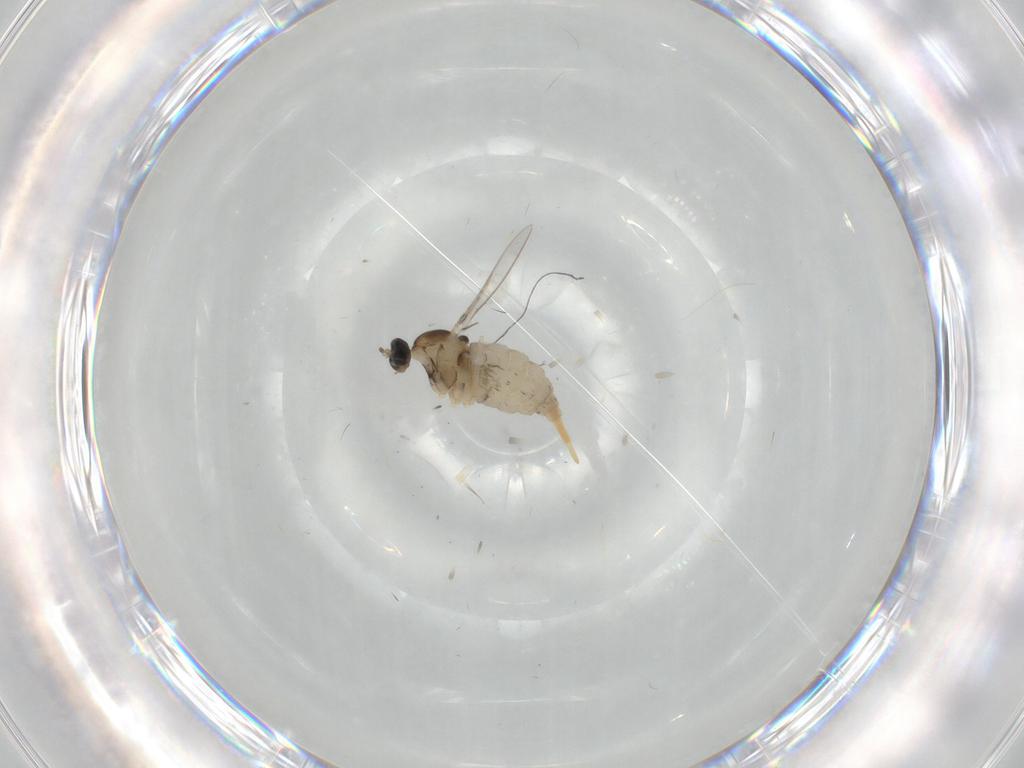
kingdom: Animalia
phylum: Arthropoda
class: Insecta
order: Diptera
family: Cecidomyiidae
